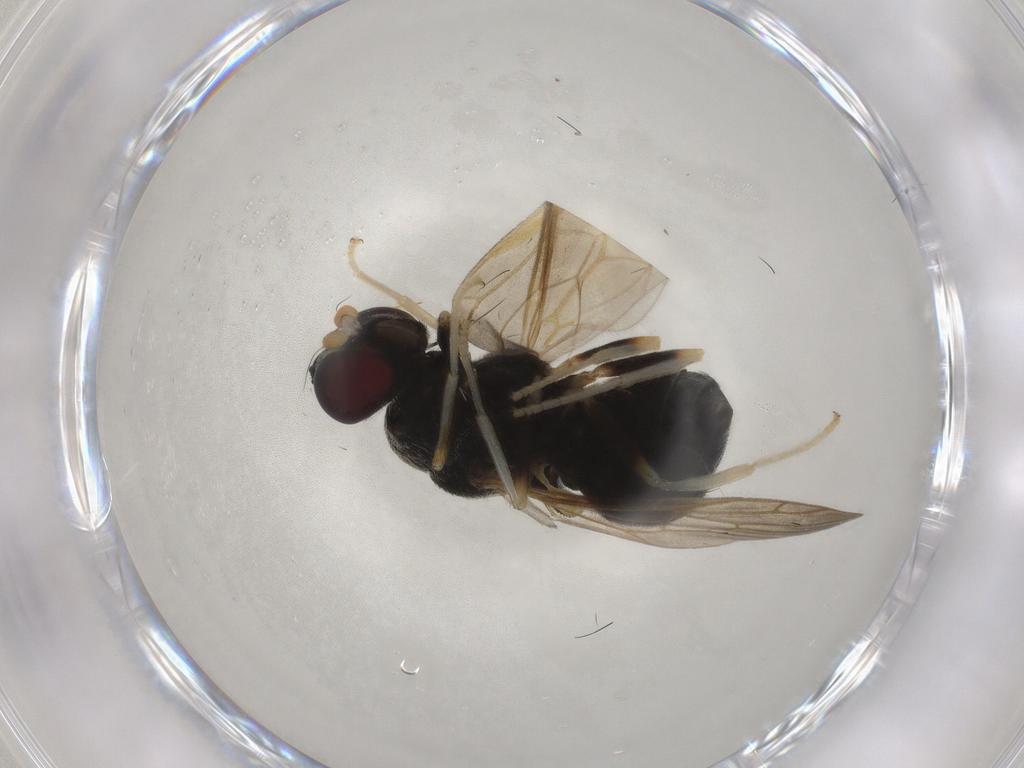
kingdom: Animalia
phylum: Arthropoda
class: Insecta
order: Diptera
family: Stratiomyidae
